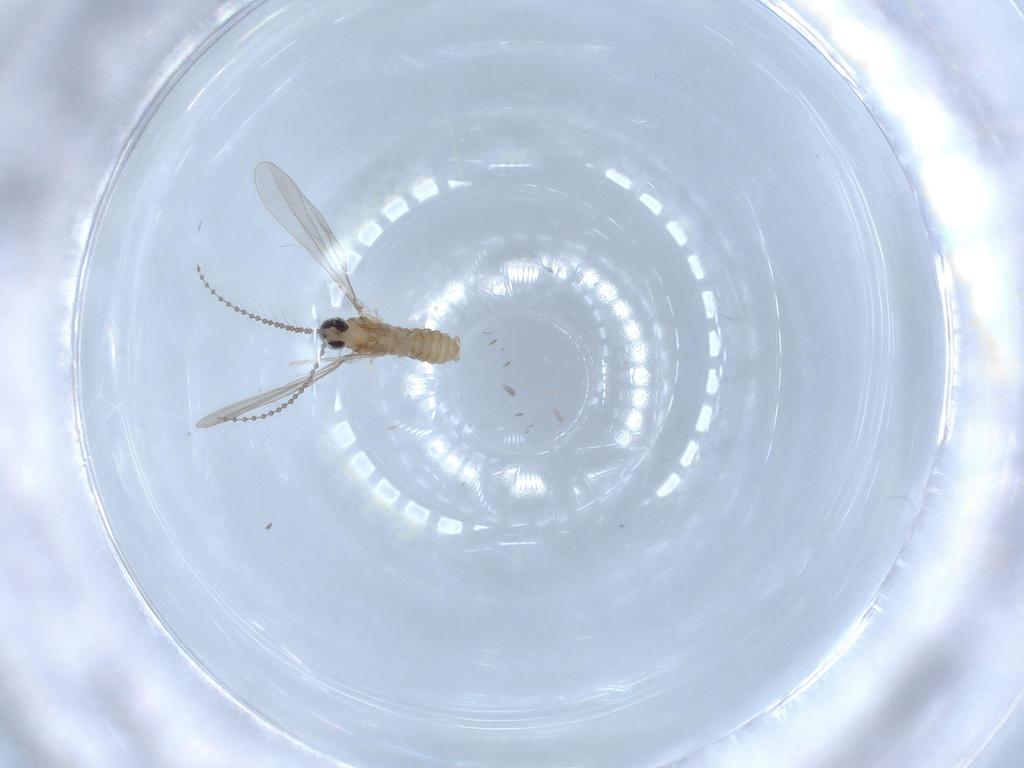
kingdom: Animalia
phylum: Arthropoda
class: Insecta
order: Diptera
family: Cecidomyiidae
